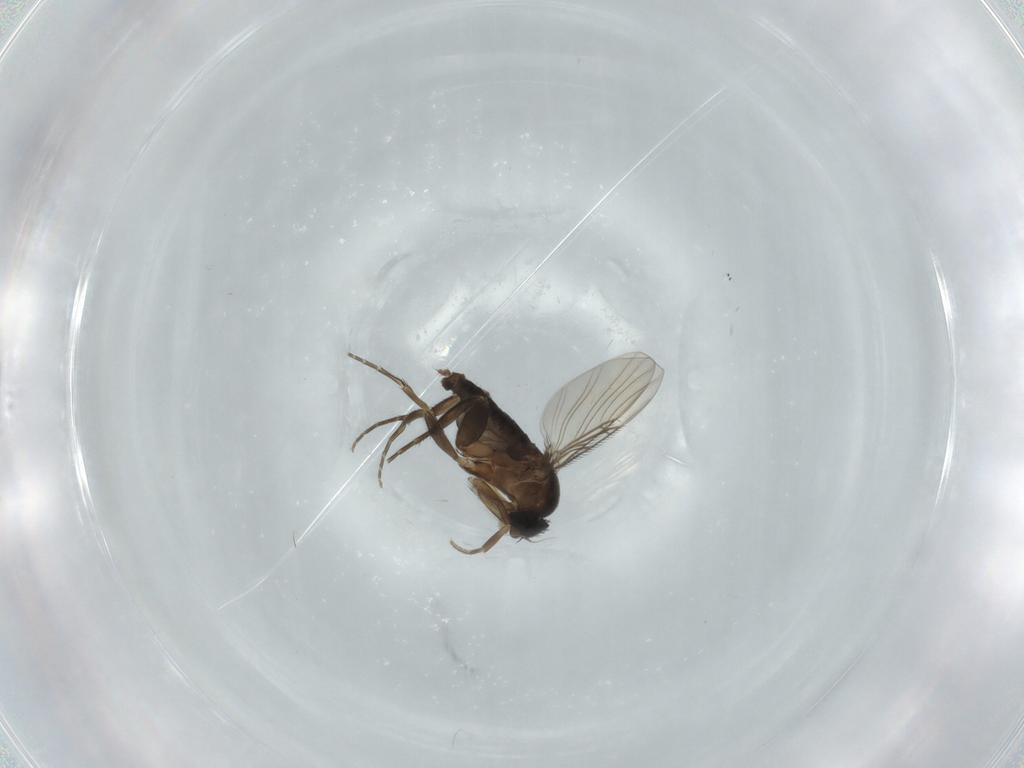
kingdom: Animalia
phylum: Arthropoda
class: Insecta
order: Diptera
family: Phoridae
